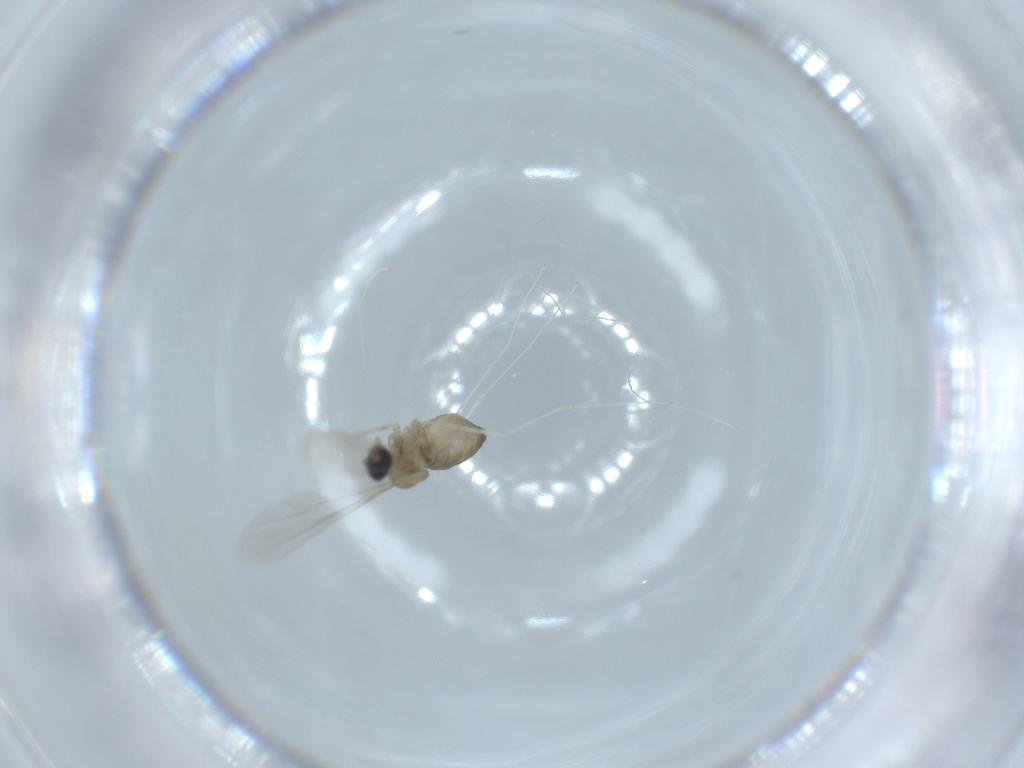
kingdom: Animalia
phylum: Arthropoda
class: Insecta
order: Diptera
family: Cecidomyiidae
